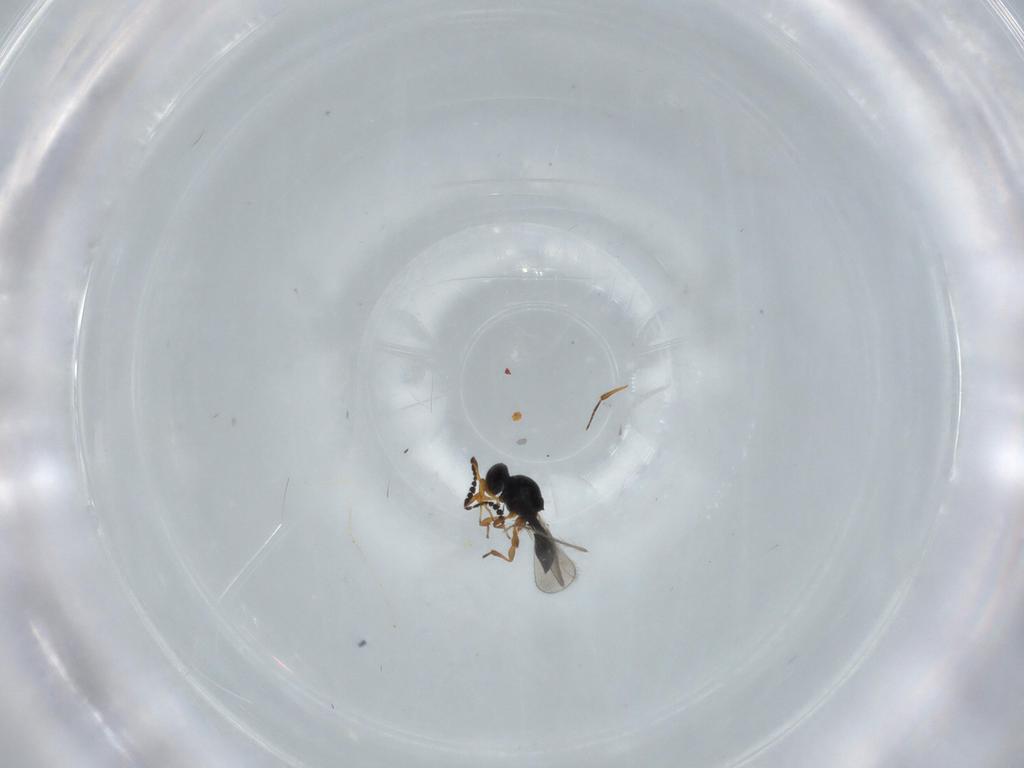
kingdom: Animalia
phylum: Arthropoda
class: Insecta
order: Hymenoptera
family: Platygastridae
